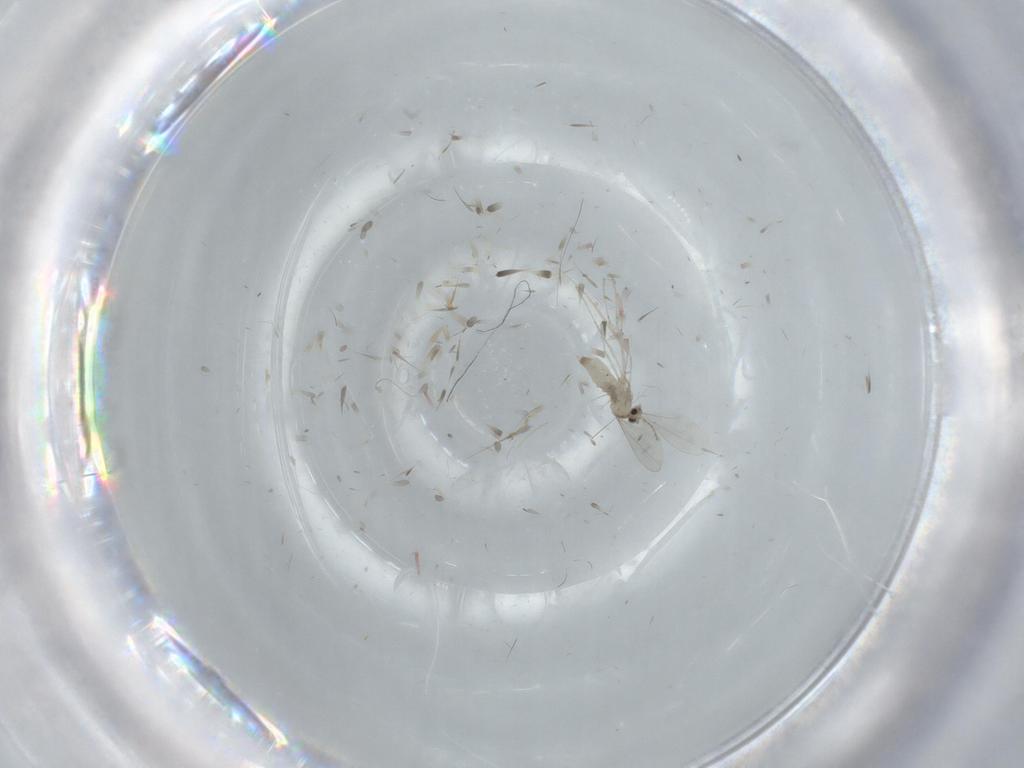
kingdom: Animalia
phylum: Arthropoda
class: Insecta
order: Diptera
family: Cecidomyiidae
